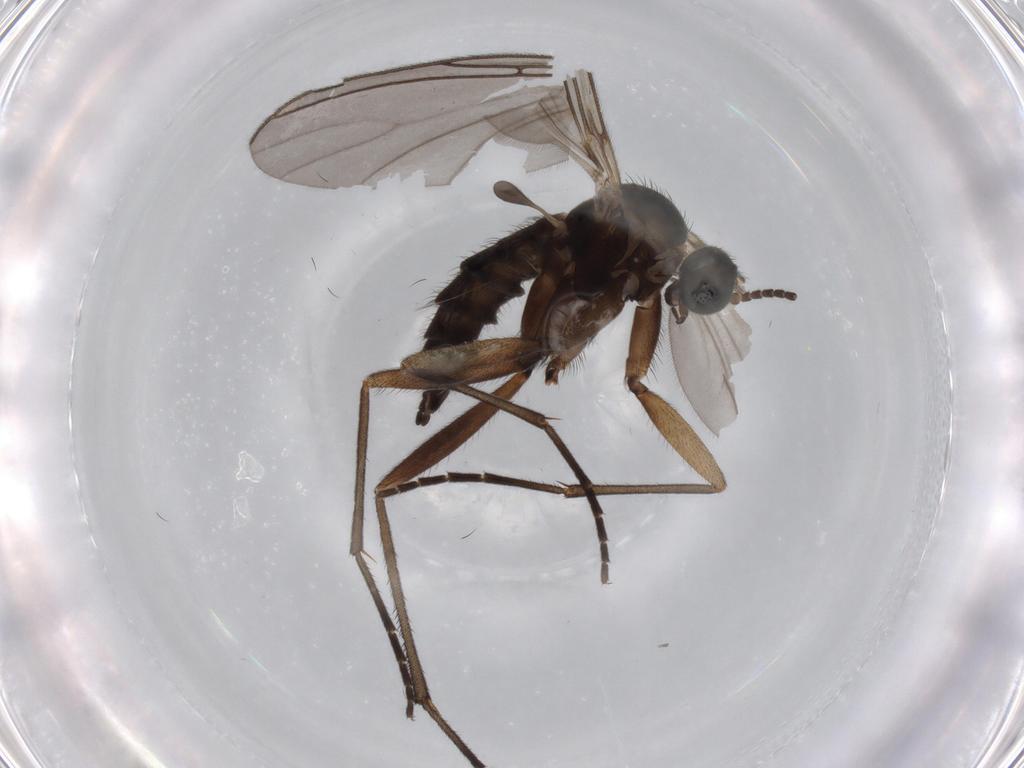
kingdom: Animalia
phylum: Arthropoda
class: Insecta
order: Diptera
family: Sciaridae
